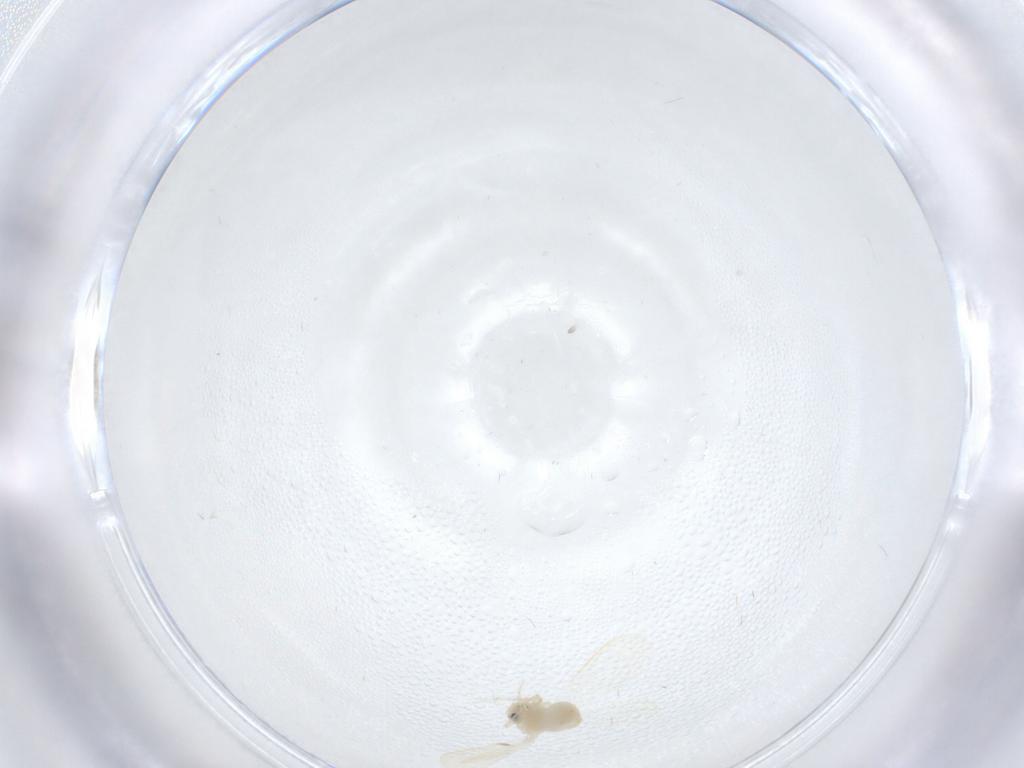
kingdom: Animalia
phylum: Arthropoda
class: Insecta
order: Hemiptera
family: Aleyrodidae
